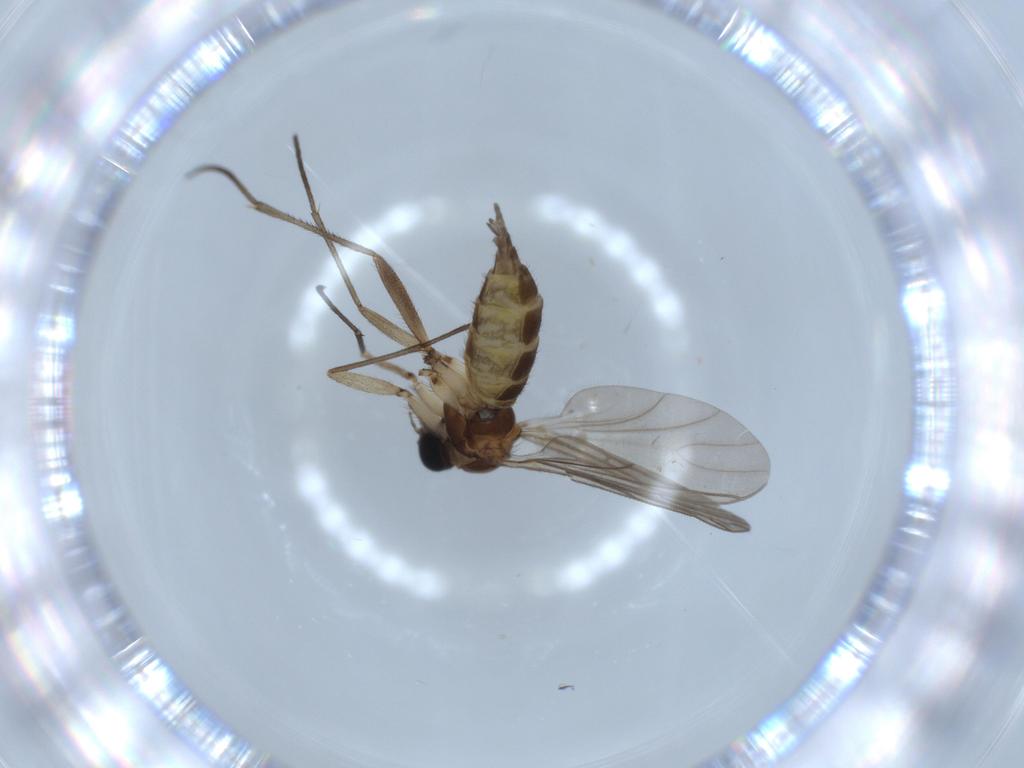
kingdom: Animalia
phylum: Arthropoda
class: Insecta
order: Diptera
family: Sciaridae
